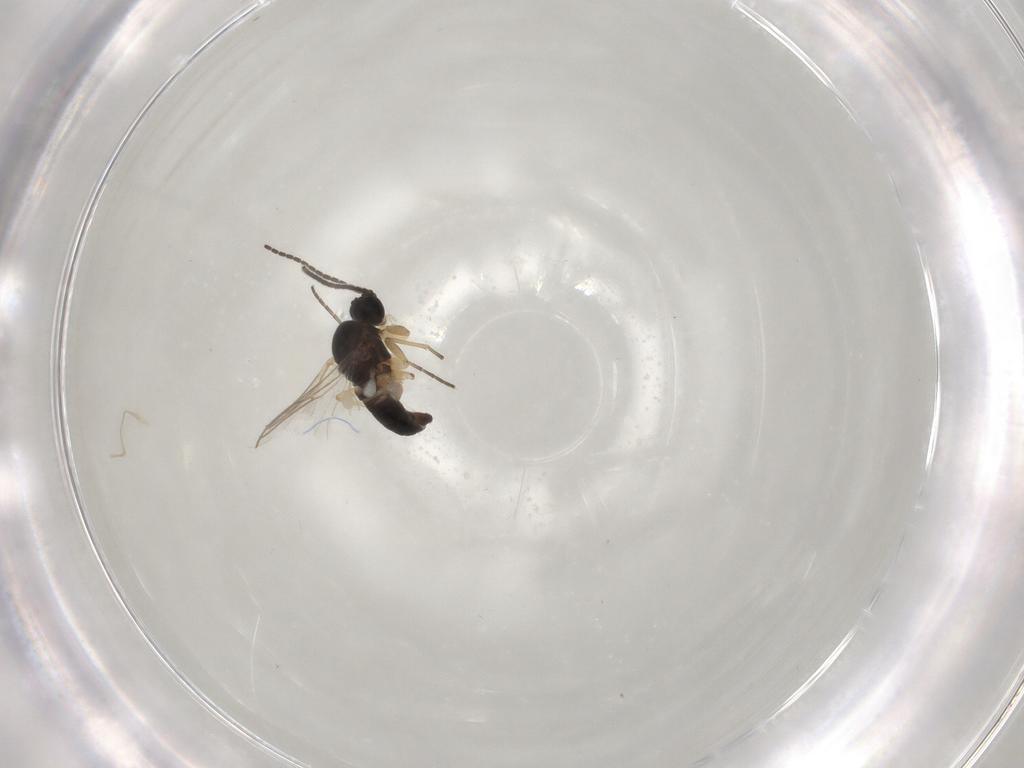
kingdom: Animalia
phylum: Arthropoda
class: Insecta
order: Diptera
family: Sciaridae
